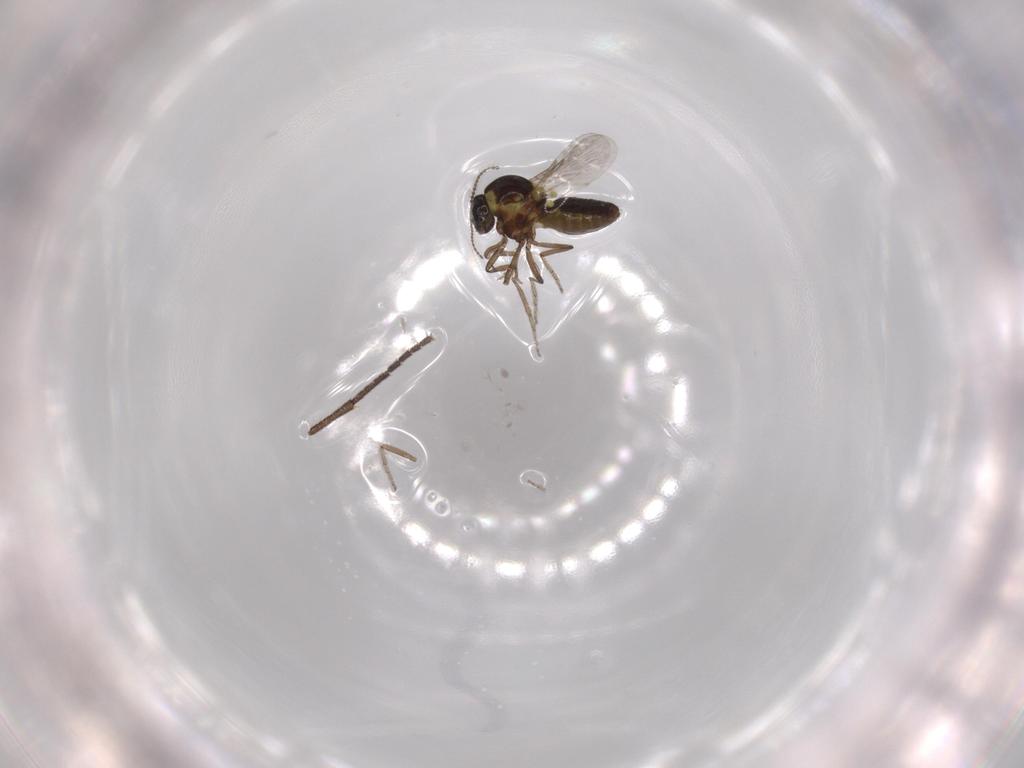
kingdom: Animalia
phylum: Arthropoda
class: Insecta
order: Diptera
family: Ceratopogonidae
